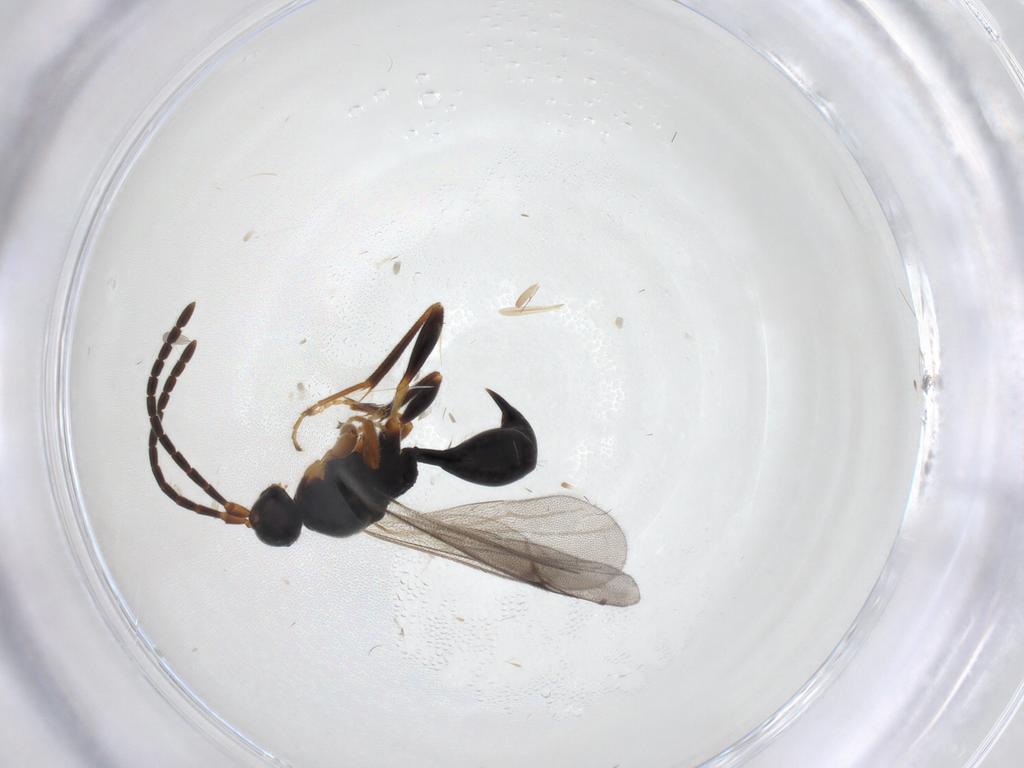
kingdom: Animalia
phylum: Arthropoda
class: Insecta
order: Hymenoptera
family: Proctotrupidae
